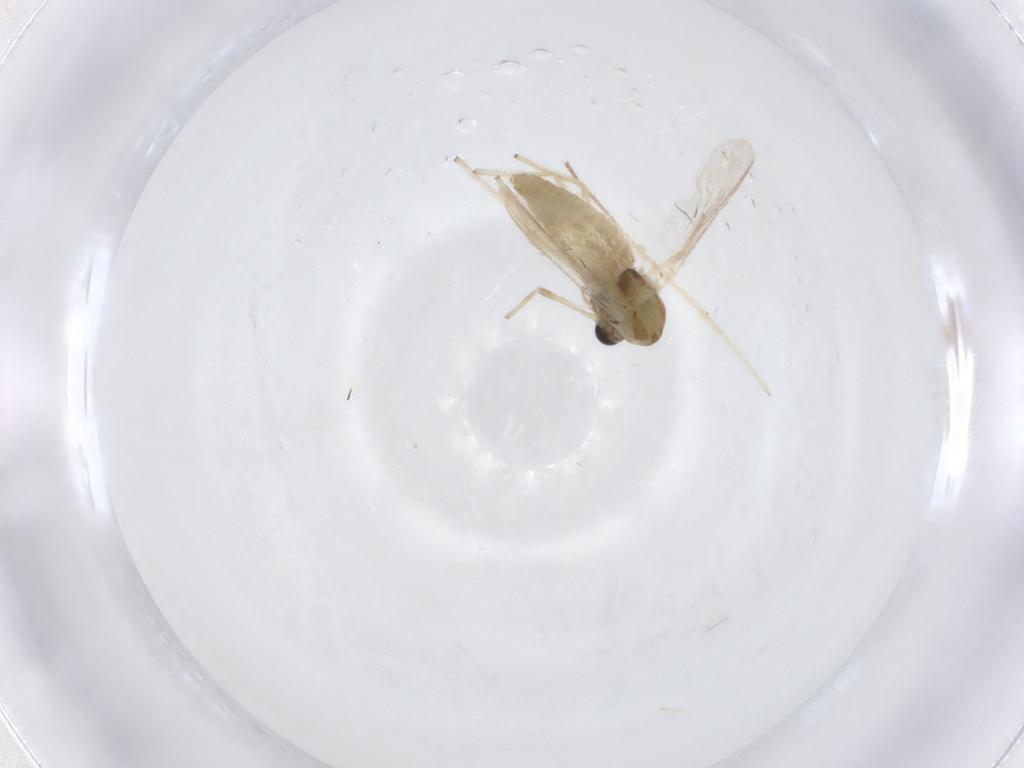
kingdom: Animalia
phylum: Arthropoda
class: Insecta
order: Diptera
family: Chironomidae
